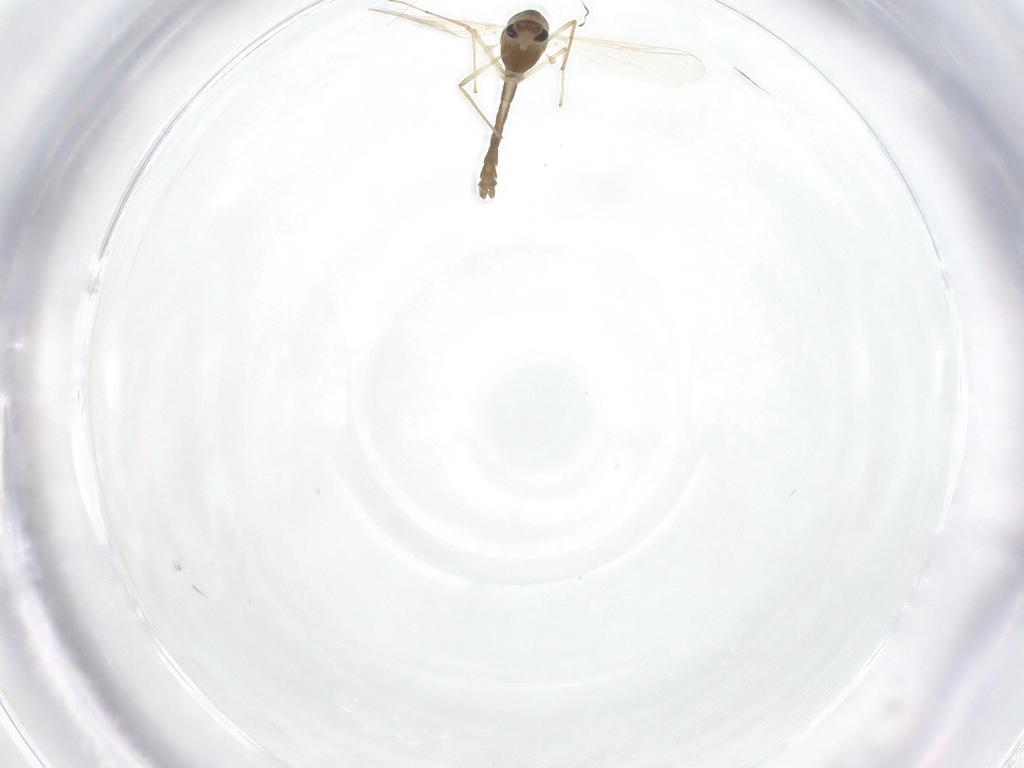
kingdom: Animalia
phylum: Arthropoda
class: Insecta
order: Diptera
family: Chironomidae
